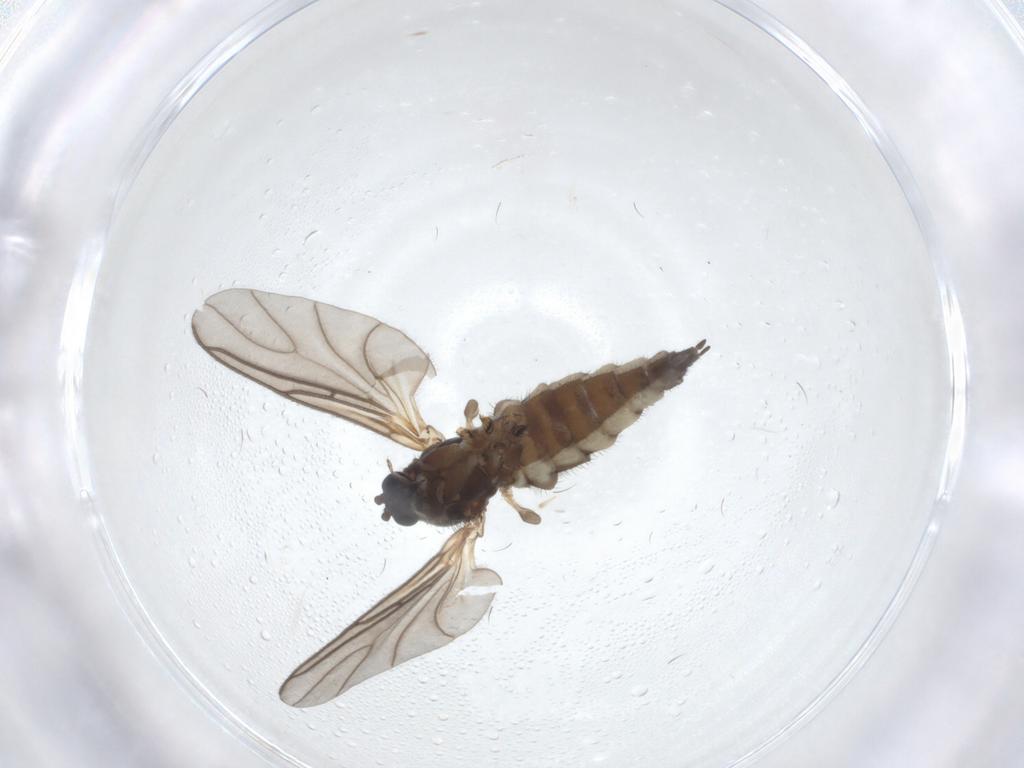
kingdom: Animalia
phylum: Arthropoda
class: Insecta
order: Diptera
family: Sciaridae
